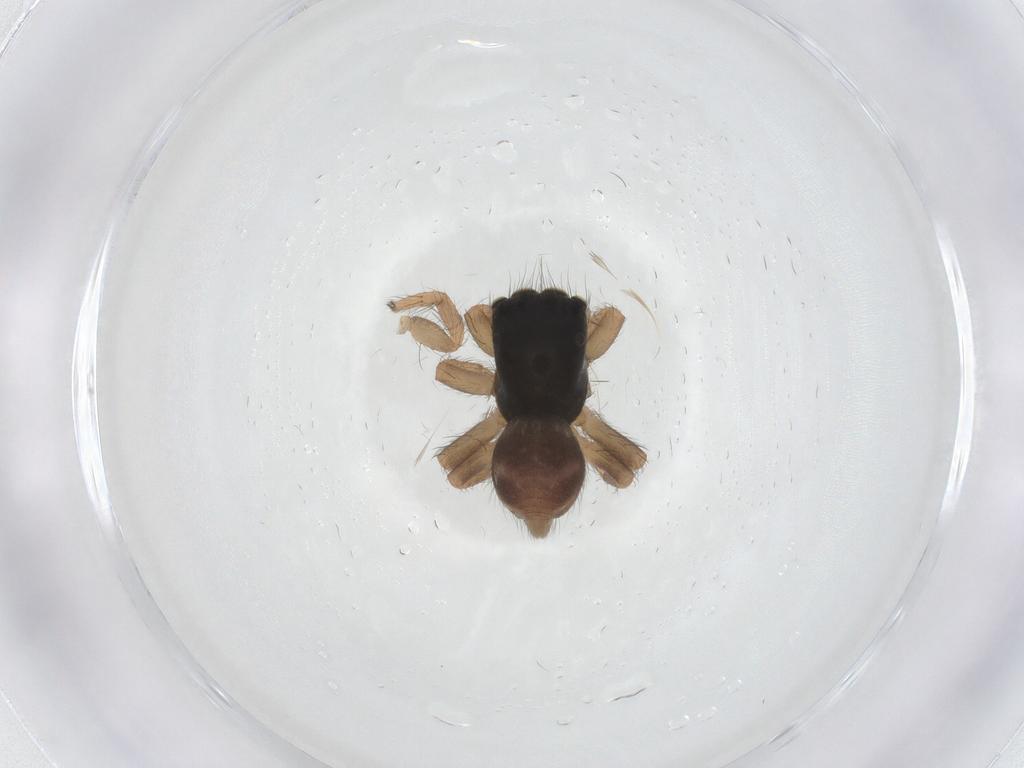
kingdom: Animalia
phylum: Arthropoda
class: Arachnida
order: Araneae
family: Salticidae
